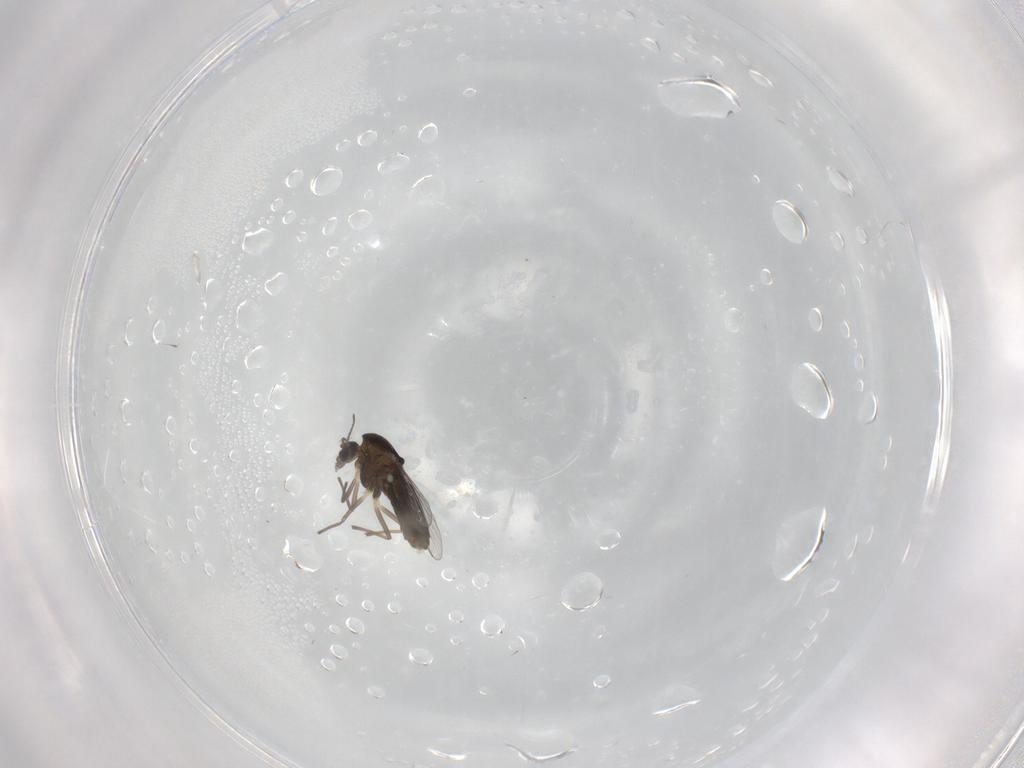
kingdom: Animalia
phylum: Arthropoda
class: Insecta
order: Diptera
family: Chironomidae
